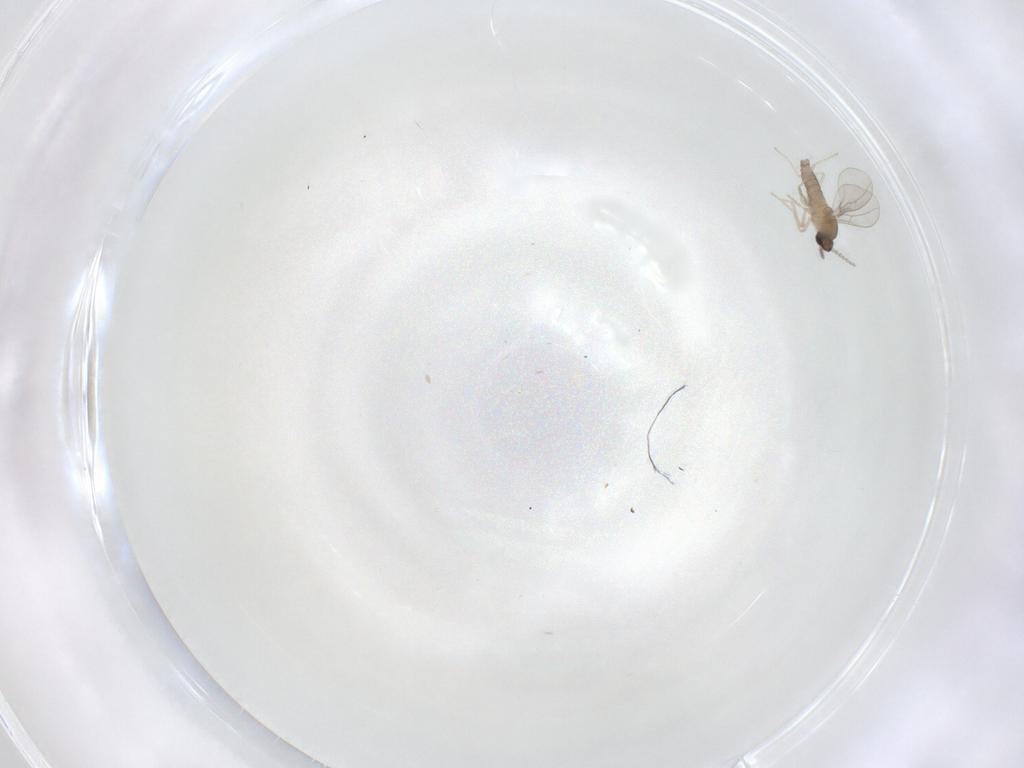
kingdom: Animalia
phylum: Arthropoda
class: Insecta
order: Diptera
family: Cecidomyiidae
